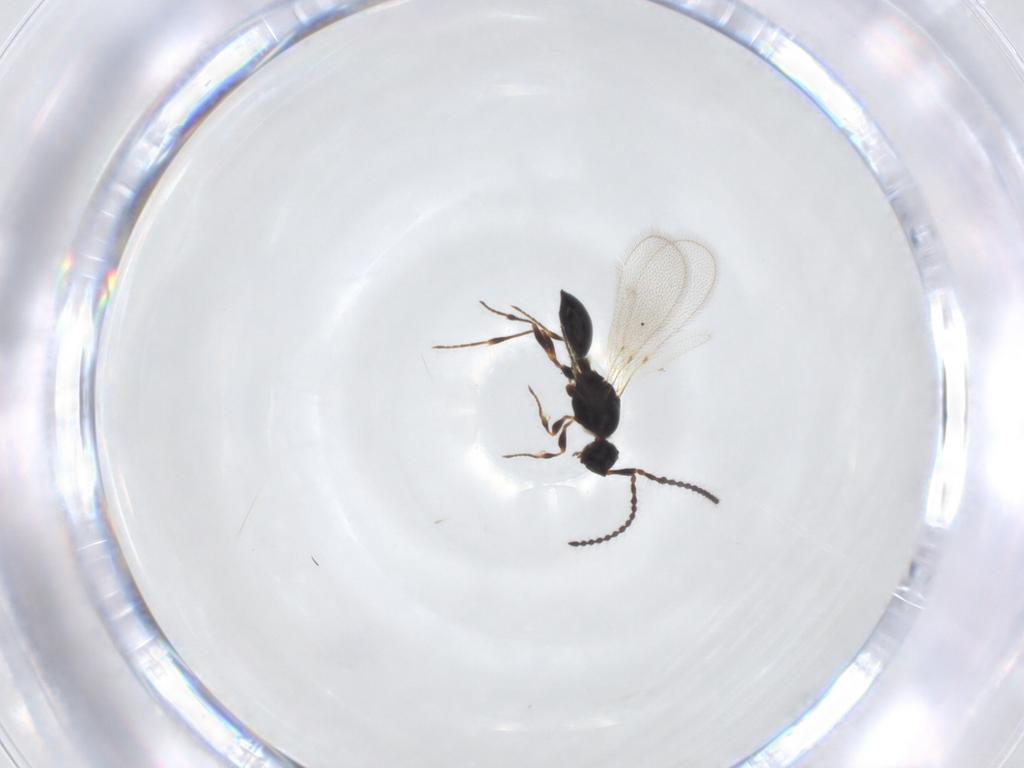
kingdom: Animalia
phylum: Arthropoda
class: Insecta
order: Hymenoptera
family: Diapriidae
